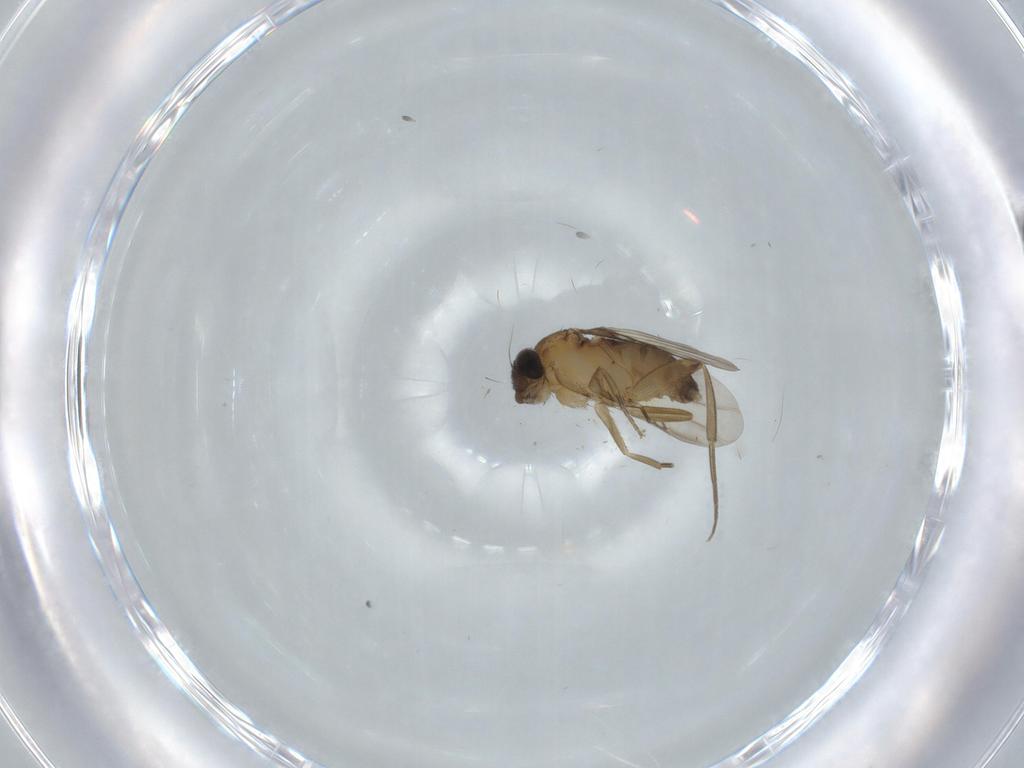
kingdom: Animalia
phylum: Arthropoda
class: Insecta
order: Diptera
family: Phoridae
